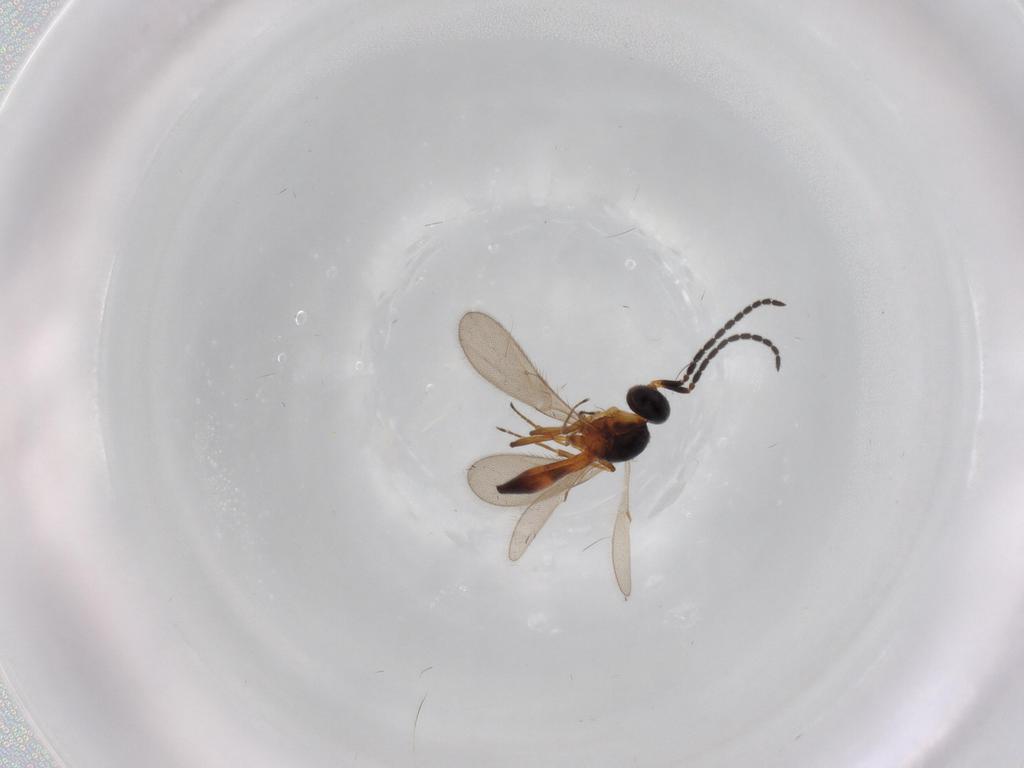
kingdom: Animalia
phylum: Arthropoda
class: Insecta
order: Hymenoptera
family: Scelionidae
